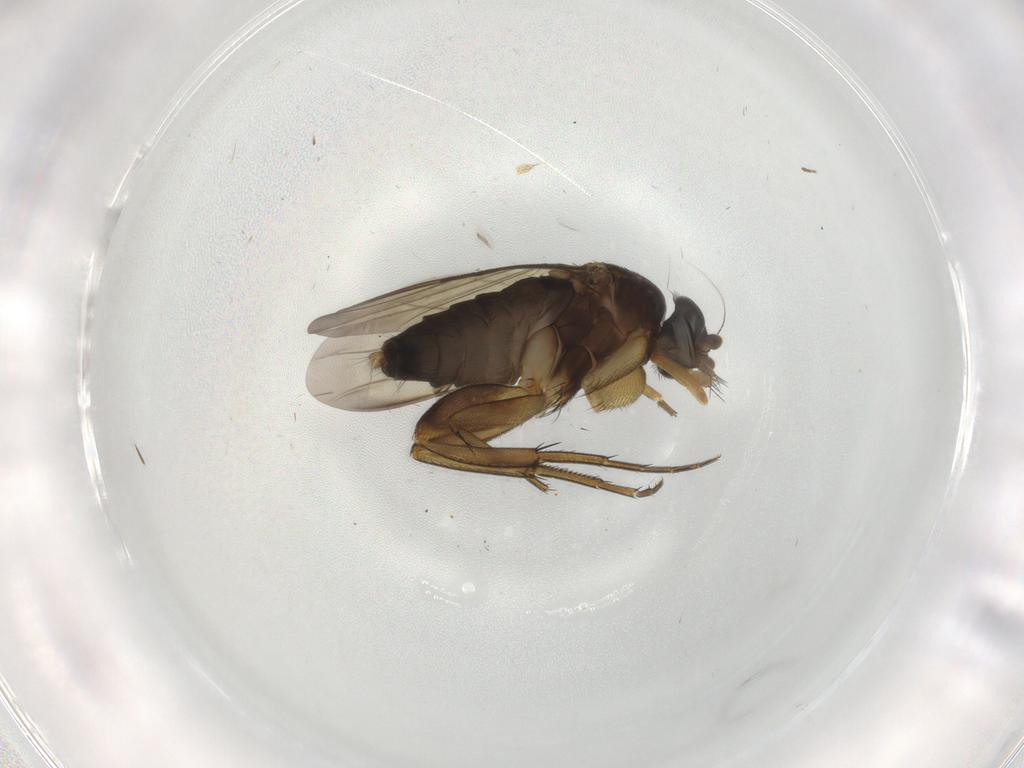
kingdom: Animalia
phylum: Arthropoda
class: Insecta
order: Diptera
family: Phoridae
